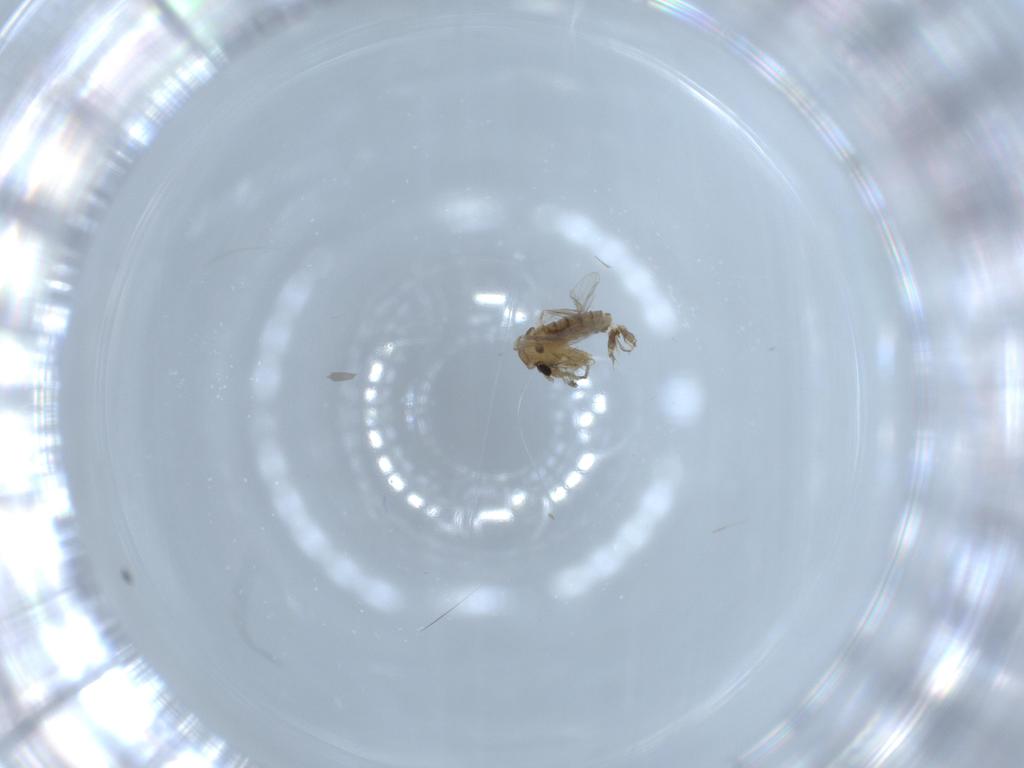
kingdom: Animalia
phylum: Arthropoda
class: Insecta
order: Diptera
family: Psychodidae
